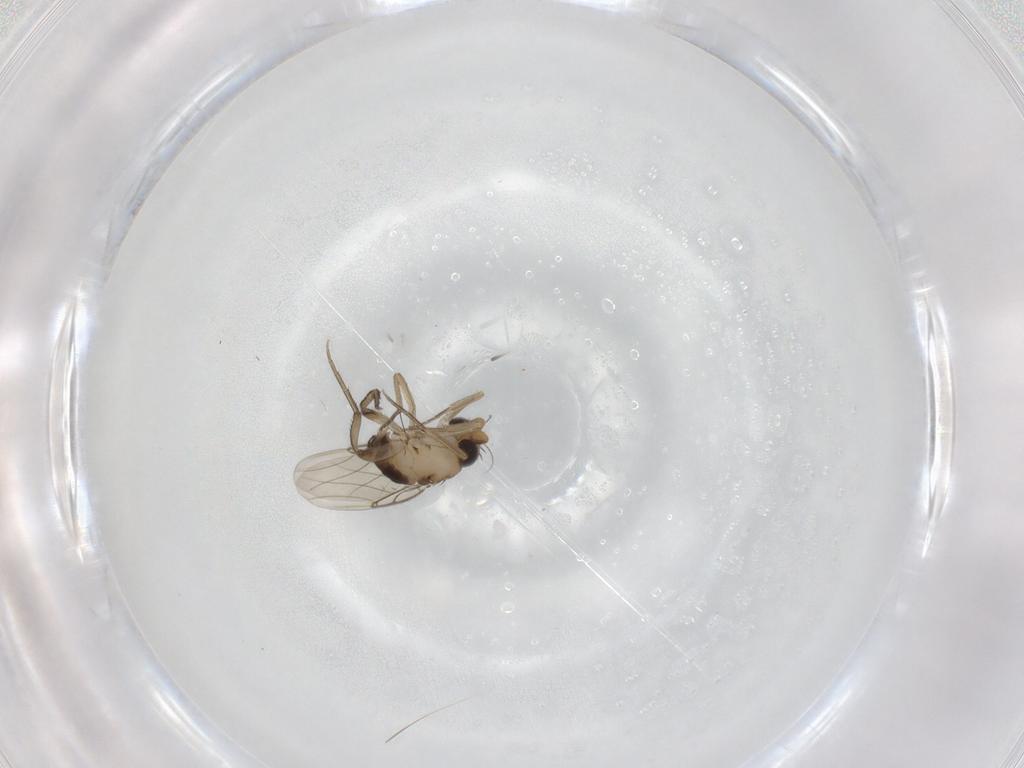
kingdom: Animalia
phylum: Arthropoda
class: Insecta
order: Diptera
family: Phoridae
